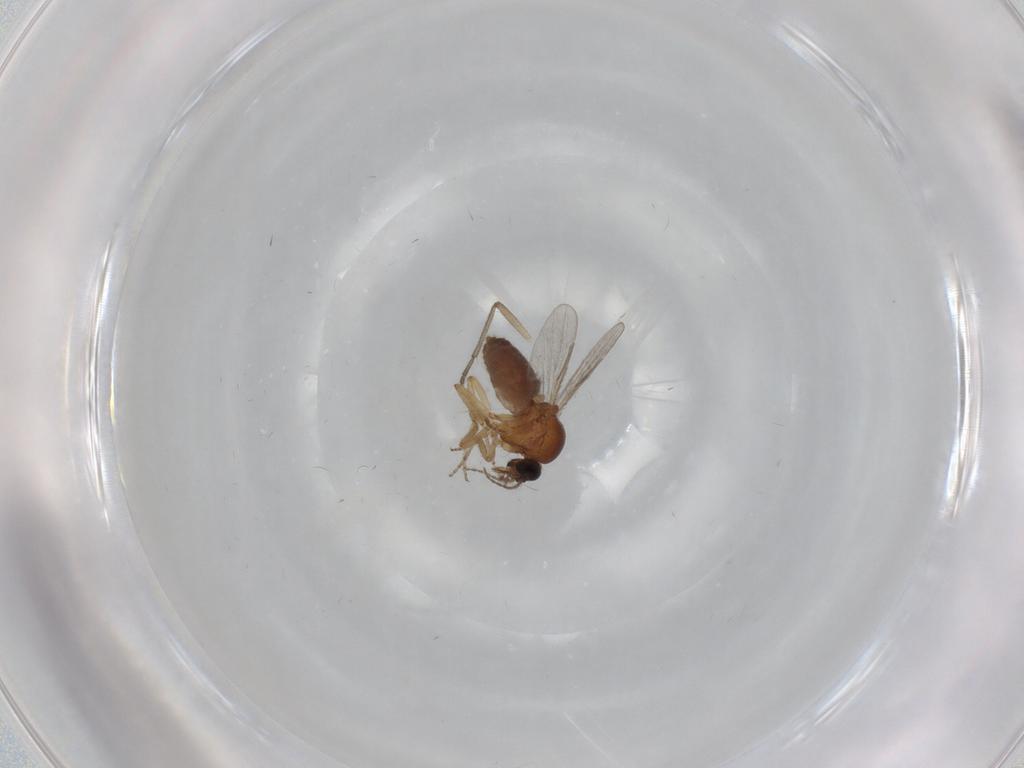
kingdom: Animalia
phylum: Arthropoda
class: Insecta
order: Diptera
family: Ceratopogonidae
